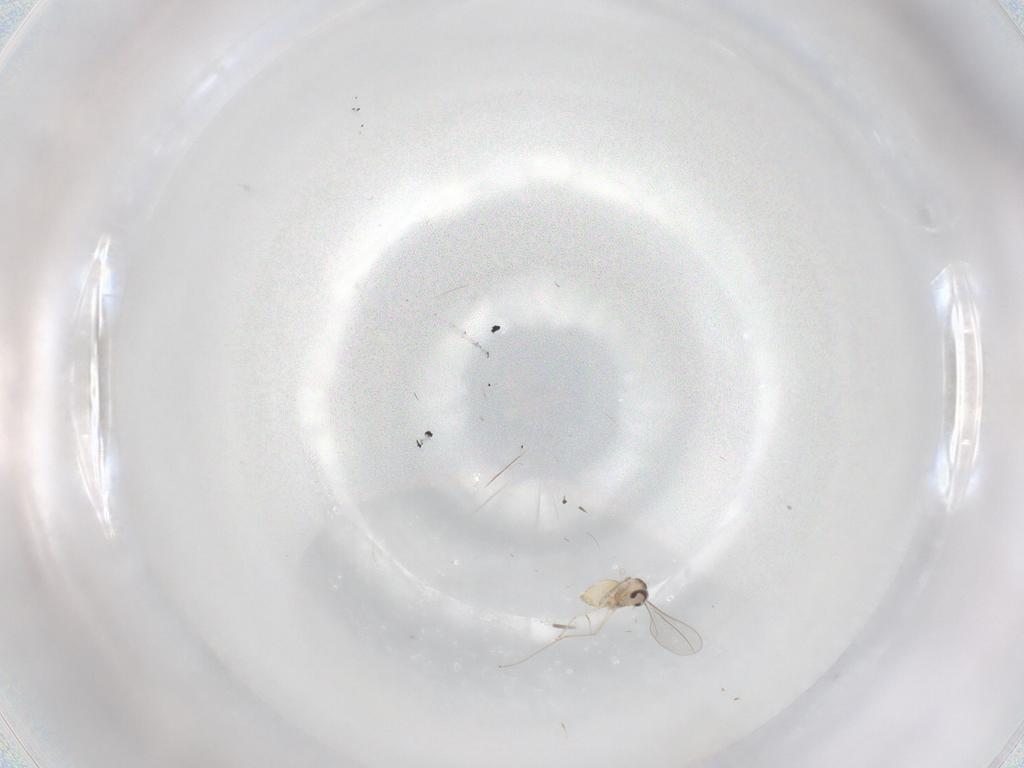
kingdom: Animalia
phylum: Arthropoda
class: Insecta
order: Diptera
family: Cecidomyiidae
